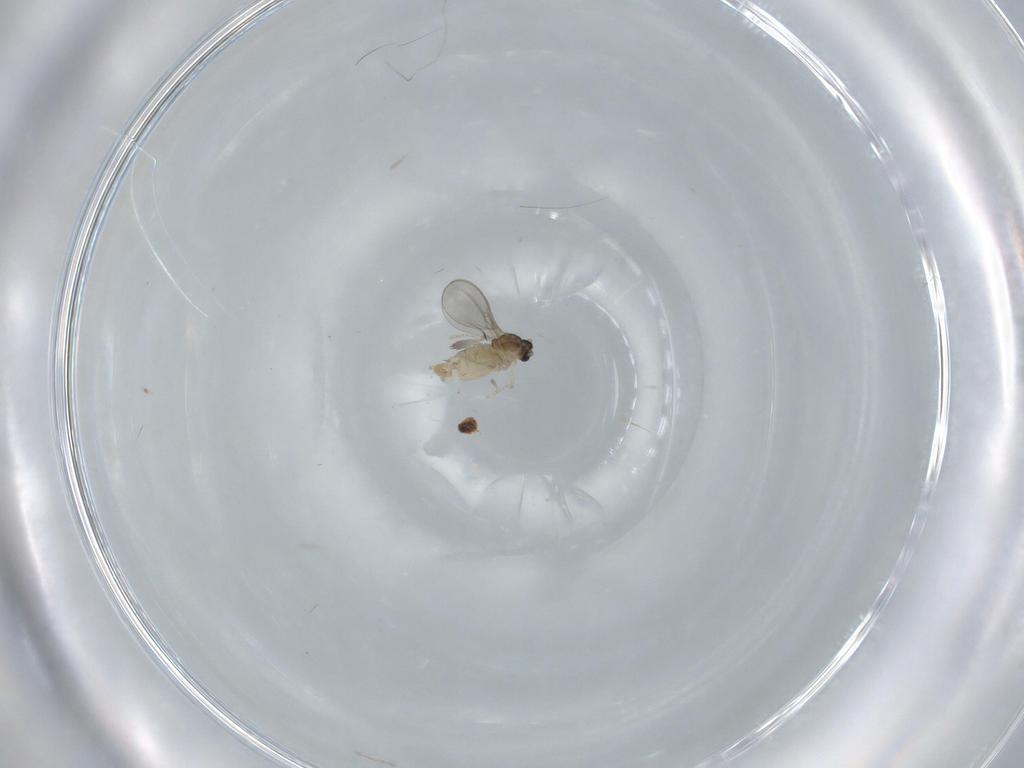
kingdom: Animalia
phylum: Arthropoda
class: Insecta
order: Diptera
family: Cecidomyiidae
